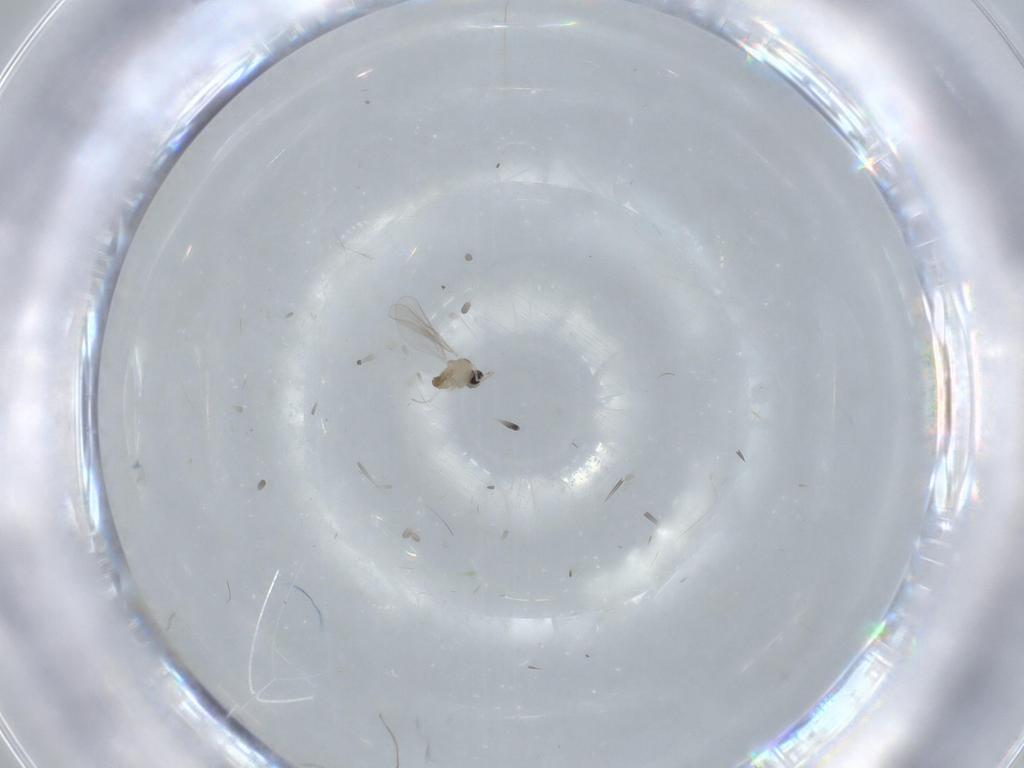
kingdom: Animalia
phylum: Arthropoda
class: Insecta
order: Diptera
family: Cecidomyiidae
